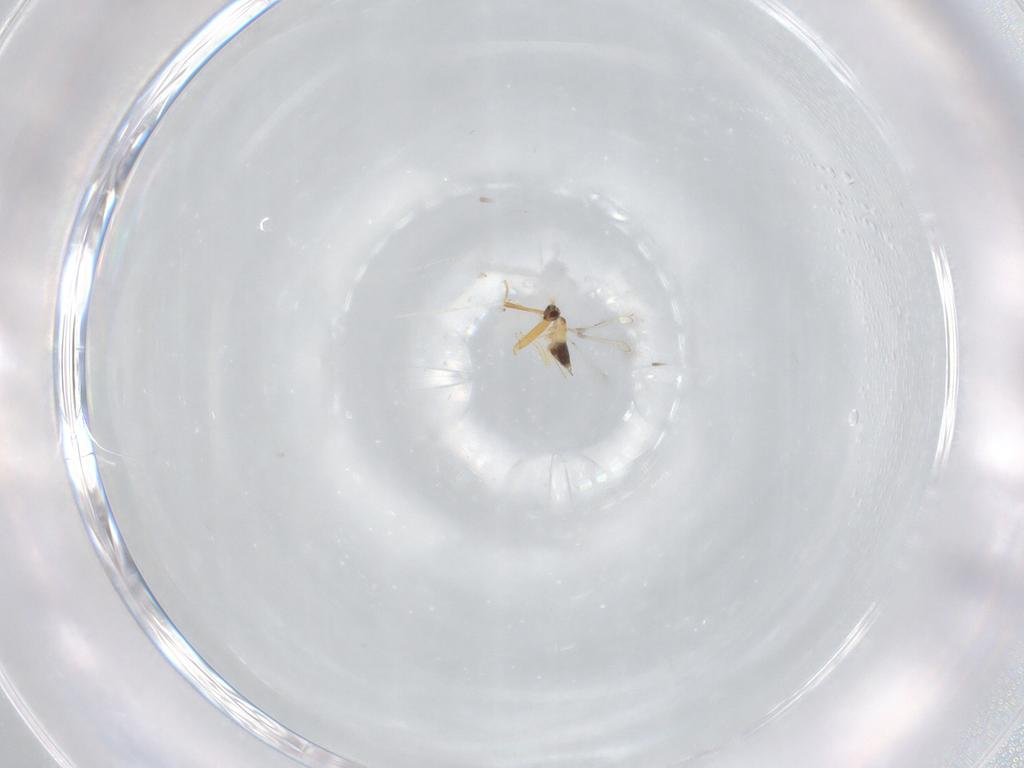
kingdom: Animalia
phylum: Arthropoda
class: Insecta
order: Hymenoptera
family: Mymaridae
